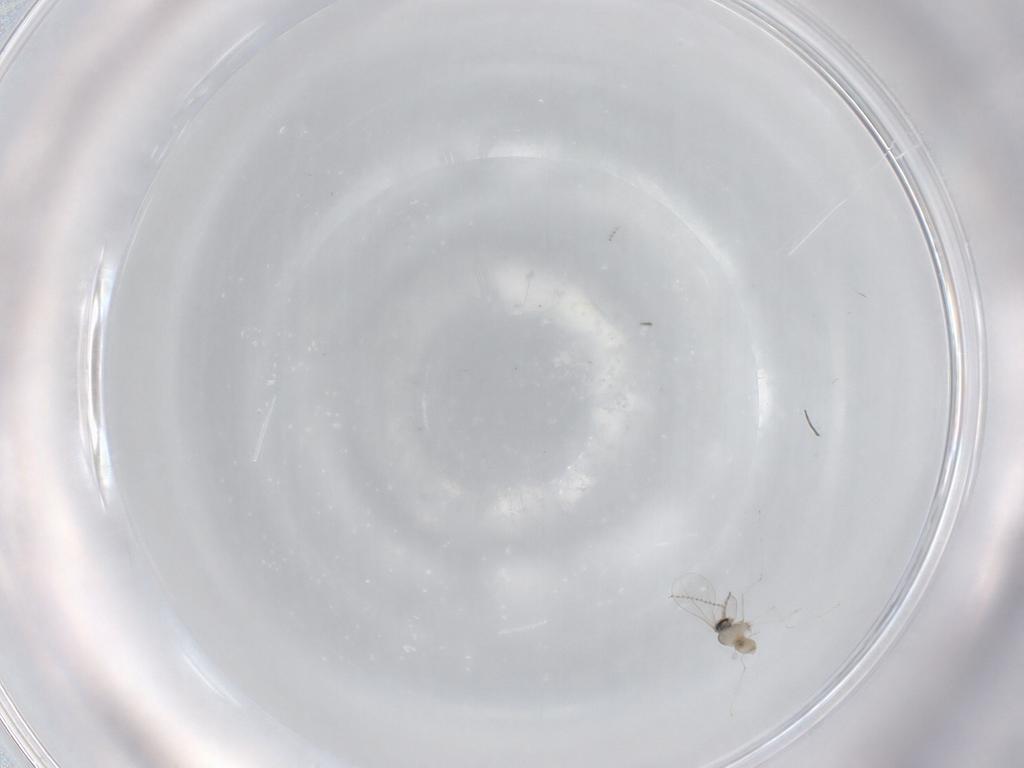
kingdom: Animalia
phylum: Arthropoda
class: Insecta
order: Diptera
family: Cecidomyiidae
